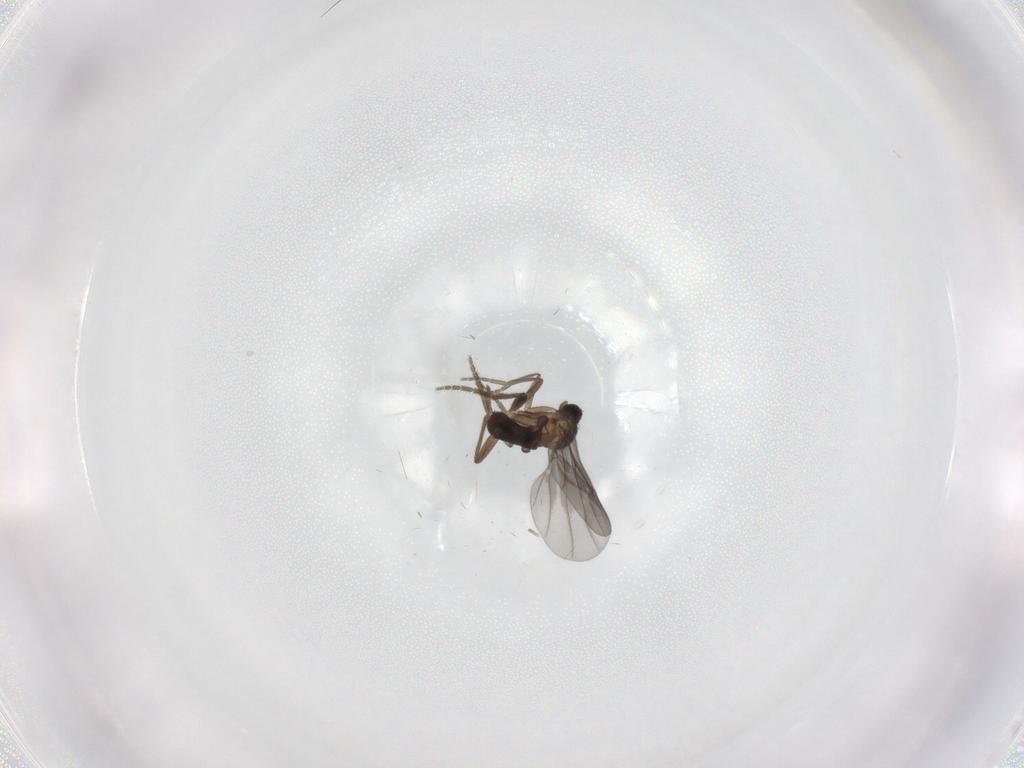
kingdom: Animalia
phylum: Arthropoda
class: Insecta
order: Diptera
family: Cecidomyiidae
